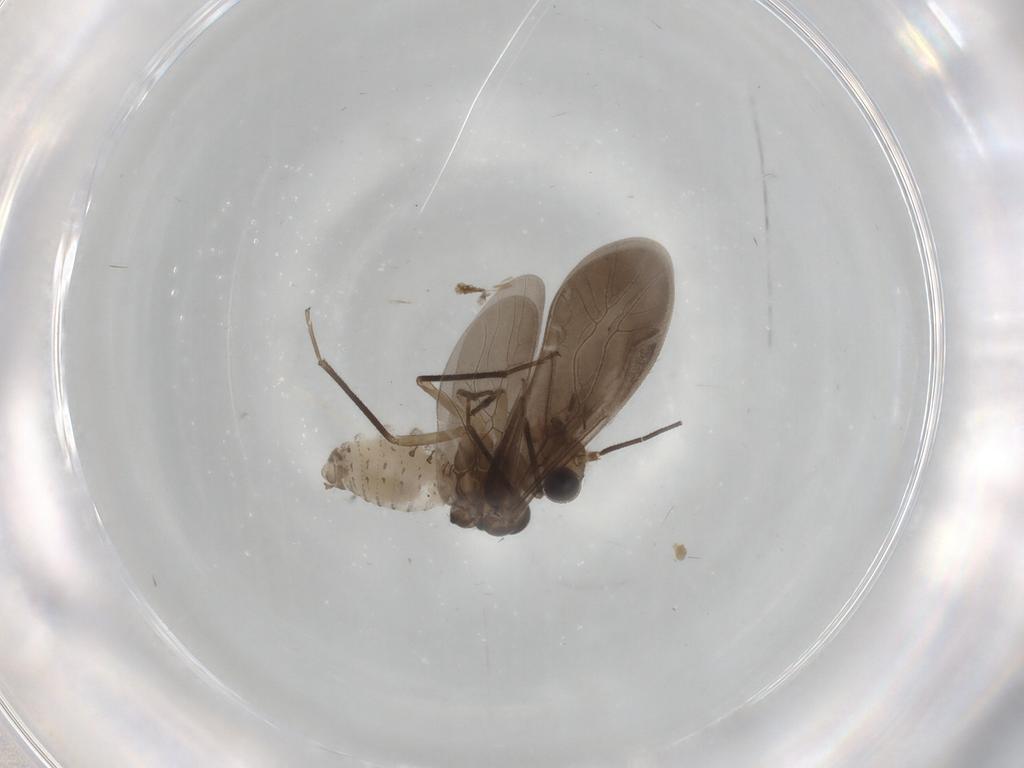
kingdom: Animalia
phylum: Arthropoda
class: Insecta
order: Psocodea
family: Caeciliusidae
